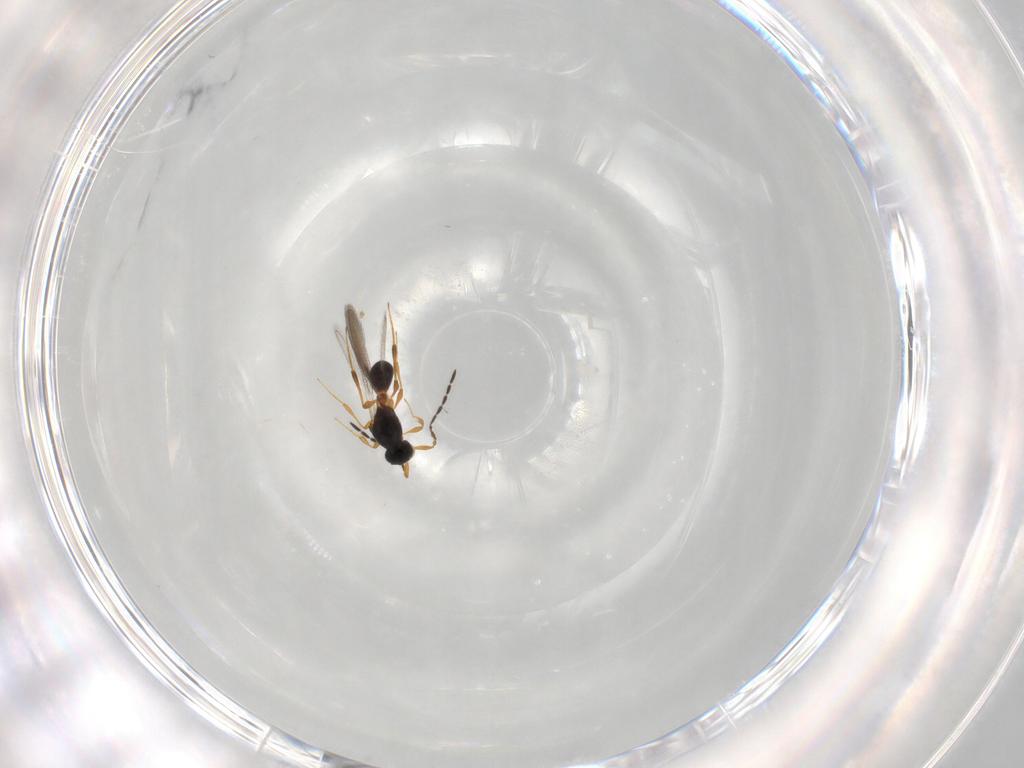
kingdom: Animalia
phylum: Arthropoda
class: Insecta
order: Hymenoptera
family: Platygastridae
